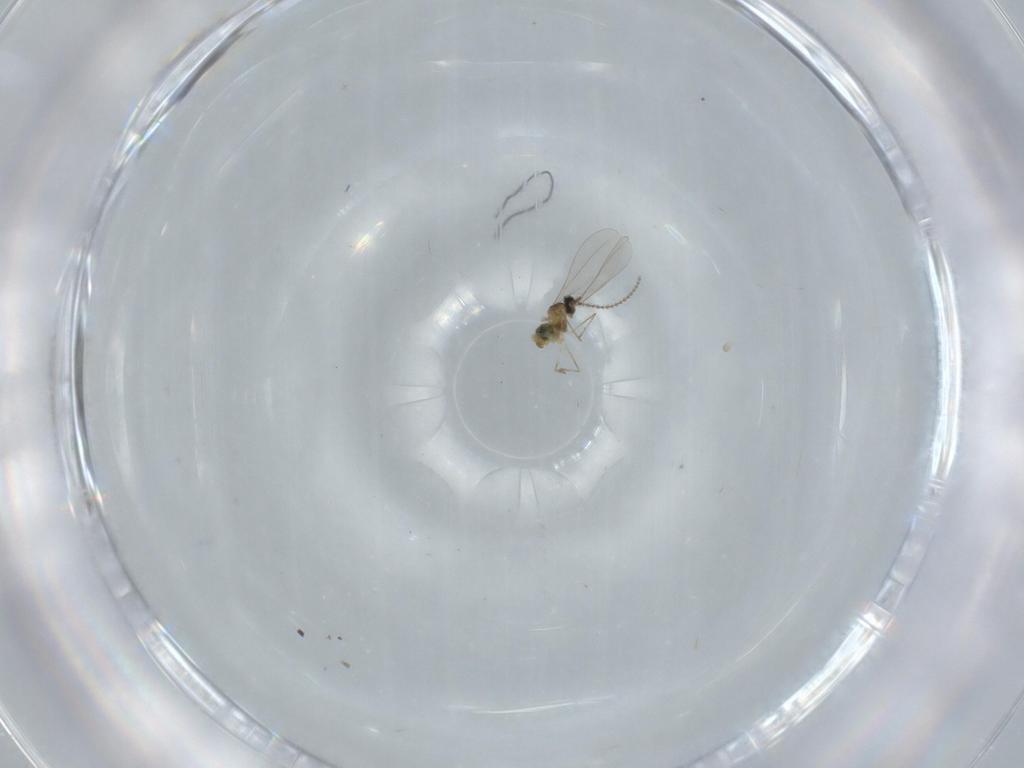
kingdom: Animalia
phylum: Arthropoda
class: Insecta
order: Diptera
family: Cecidomyiidae
